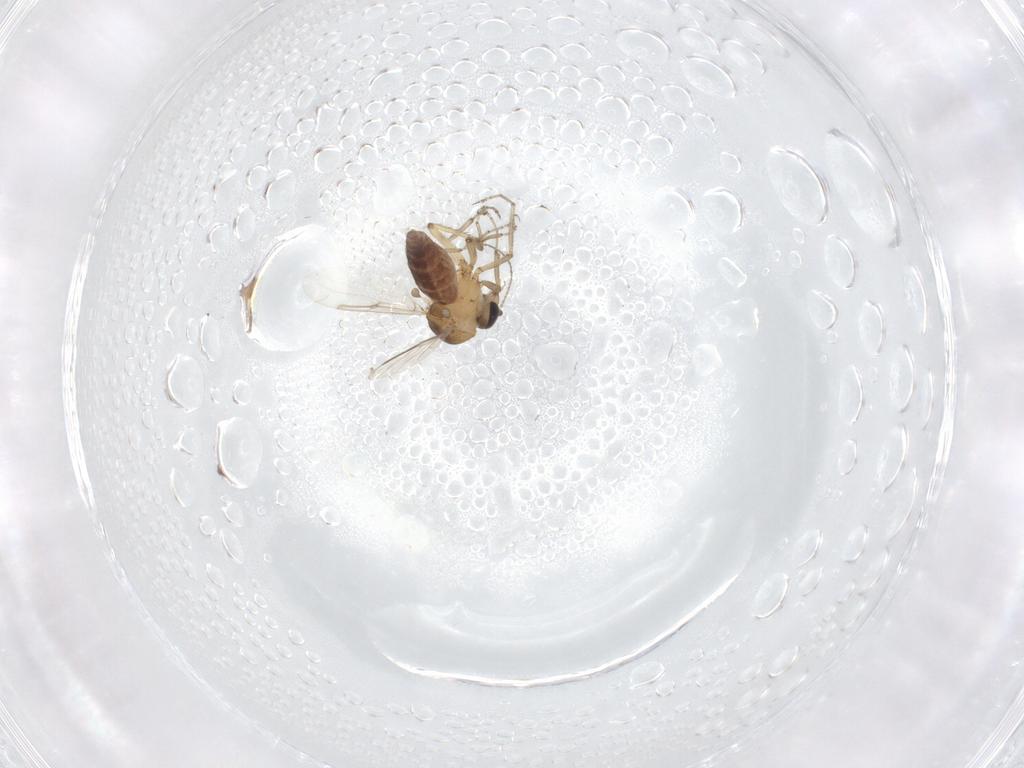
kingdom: Animalia
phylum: Arthropoda
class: Insecta
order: Diptera
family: Ceratopogonidae
